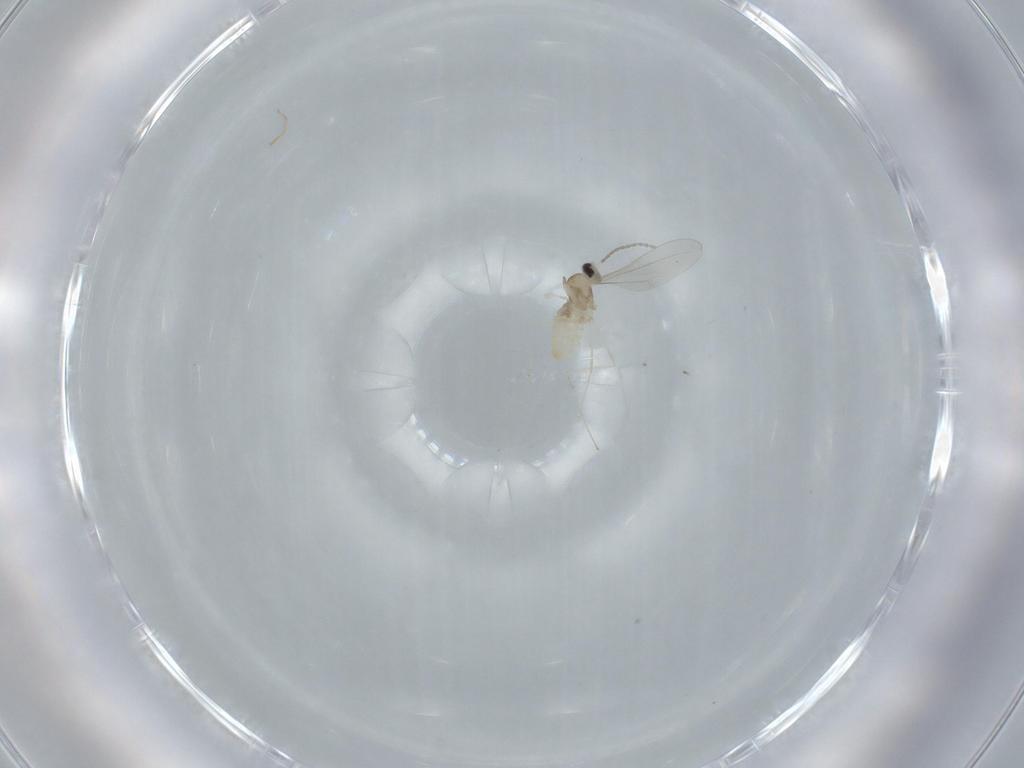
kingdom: Animalia
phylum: Arthropoda
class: Insecta
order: Diptera
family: Cecidomyiidae
